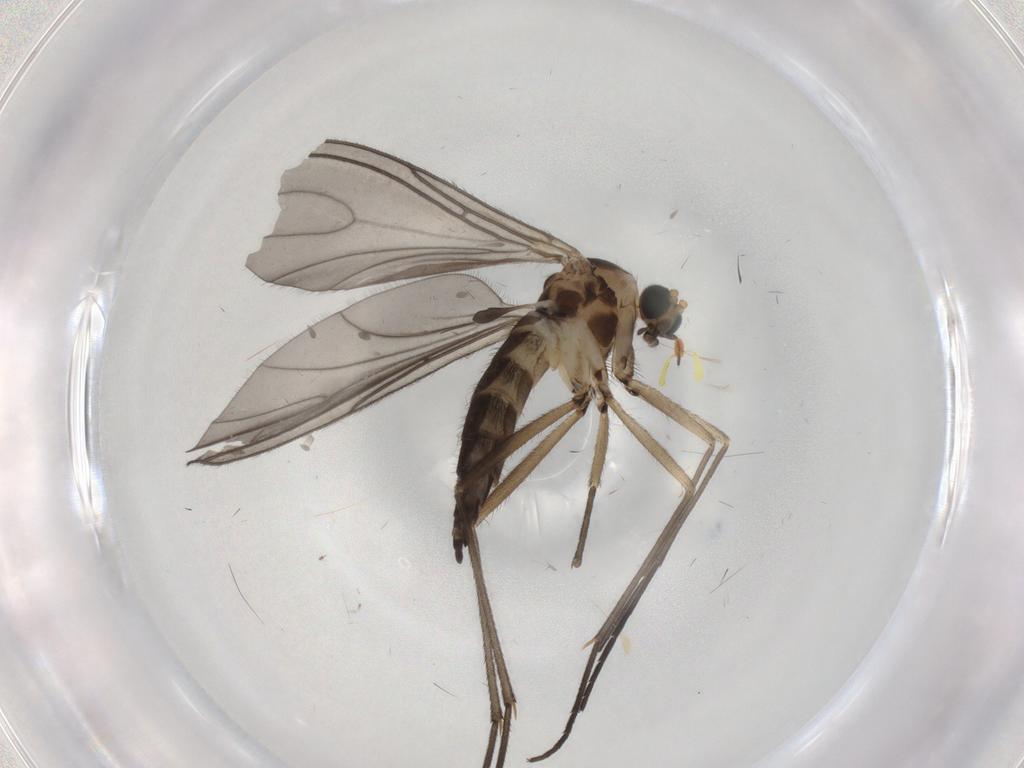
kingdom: Animalia
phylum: Arthropoda
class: Insecta
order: Diptera
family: Sciaridae
